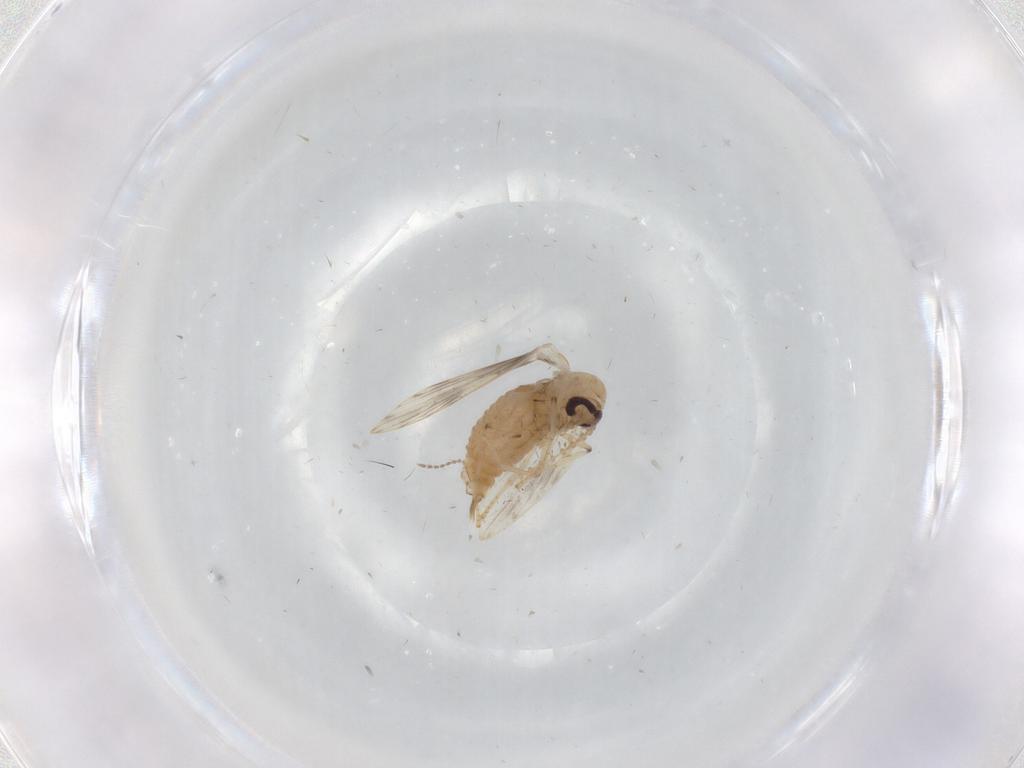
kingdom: Animalia
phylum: Arthropoda
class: Insecta
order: Diptera
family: Psychodidae
